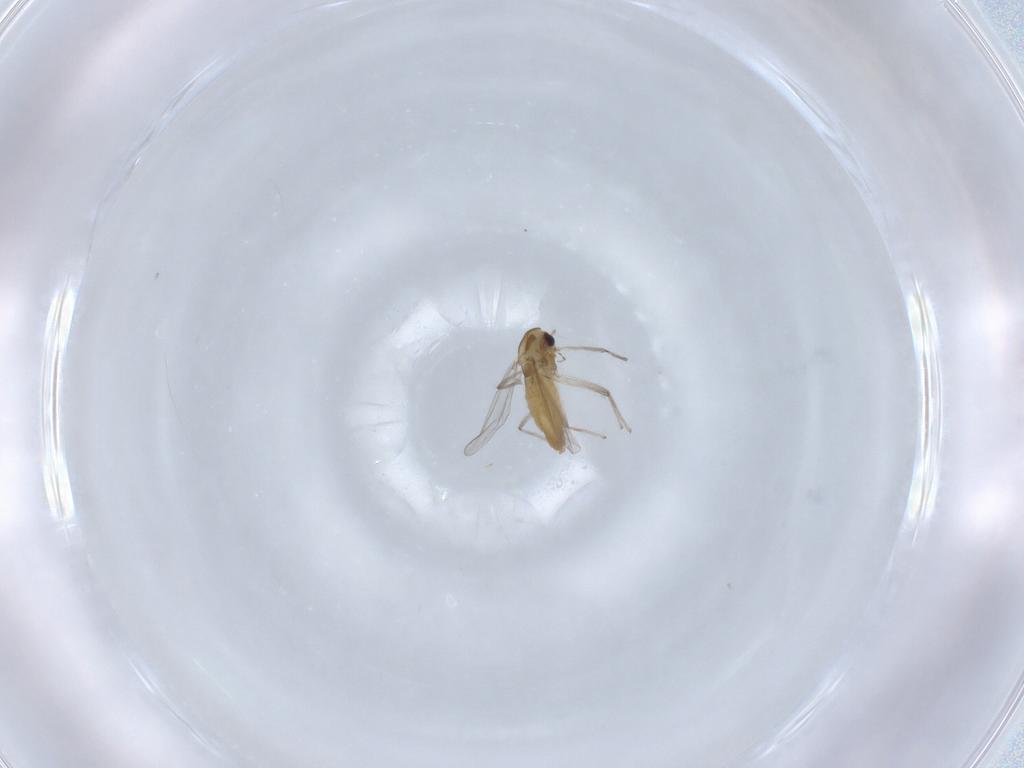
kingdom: Animalia
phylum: Arthropoda
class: Insecta
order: Diptera
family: Chironomidae
